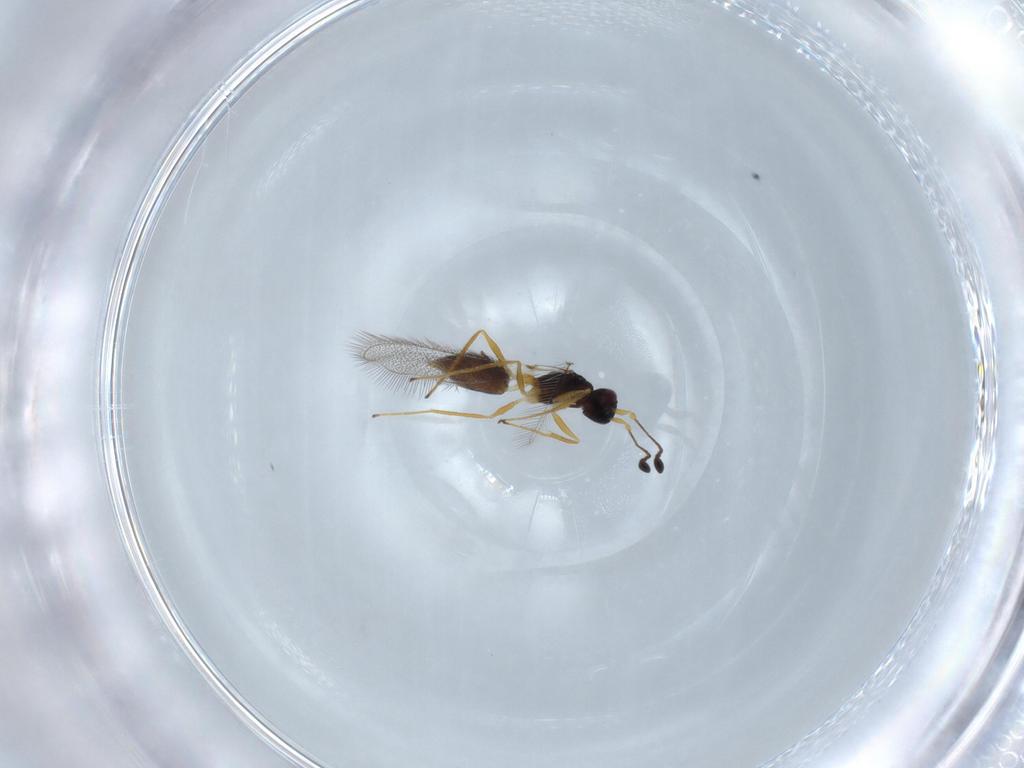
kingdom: Animalia
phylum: Arthropoda
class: Insecta
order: Hymenoptera
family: Mymaridae
